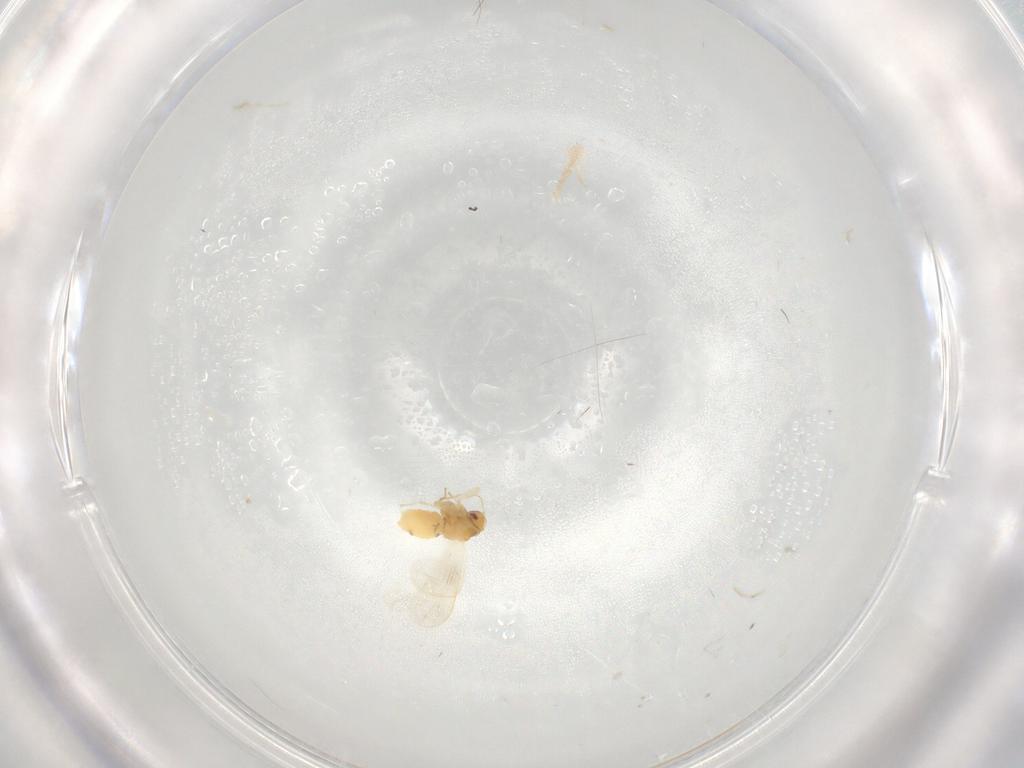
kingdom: Animalia
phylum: Arthropoda
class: Insecta
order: Hemiptera
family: Aleyrodidae
